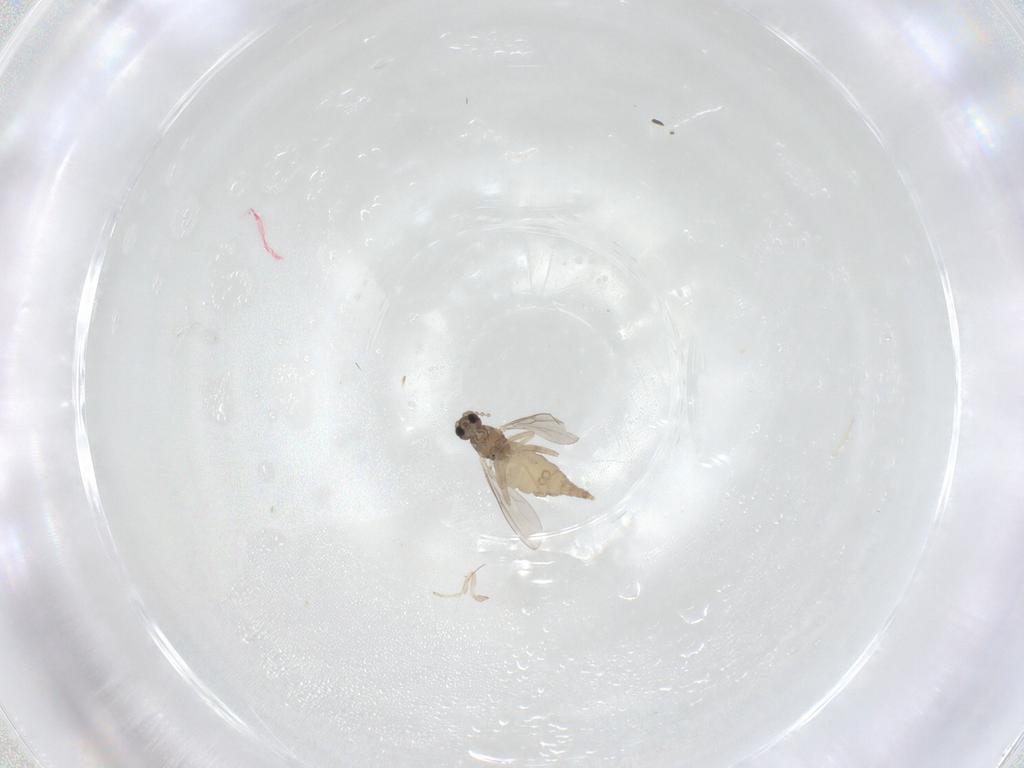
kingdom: Animalia
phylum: Arthropoda
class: Insecta
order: Diptera
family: Cecidomyiidae
